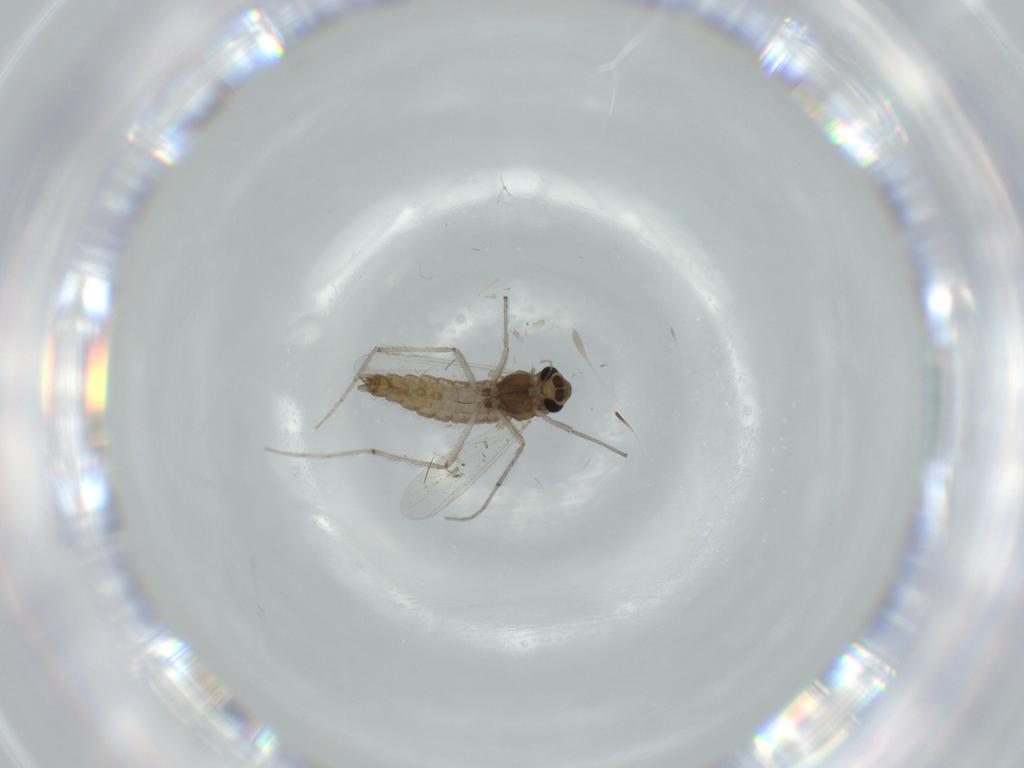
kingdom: Animalia
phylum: Arthropoda
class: Insecta
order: Diptera
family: Chironomidae
